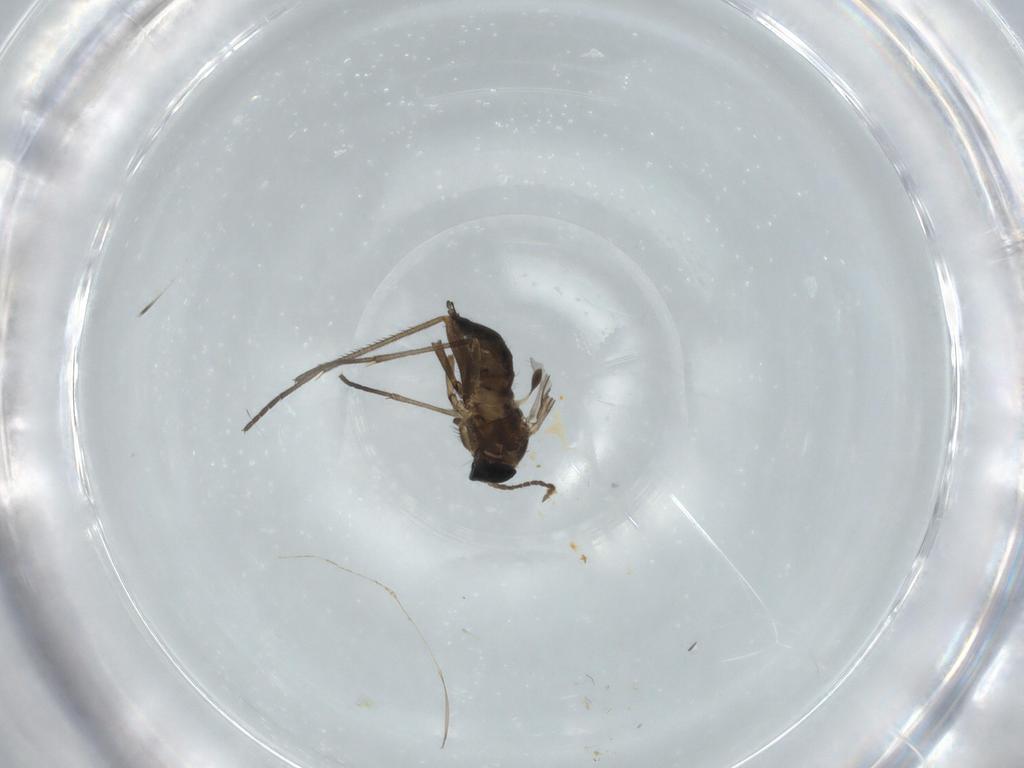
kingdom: Animalia
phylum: Arthropoda
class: Insecta
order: Diptera
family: Sciaridae
